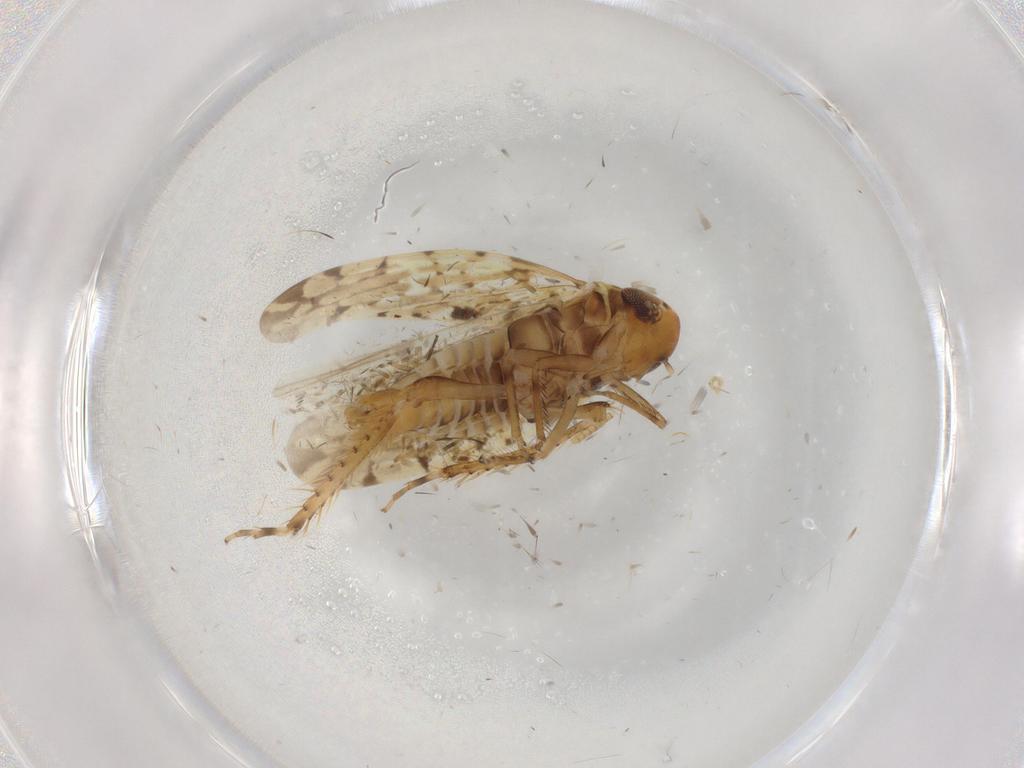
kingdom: Animalia
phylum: Arthropoda
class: Insecta
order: Hemiptera
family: Cicadellidae
